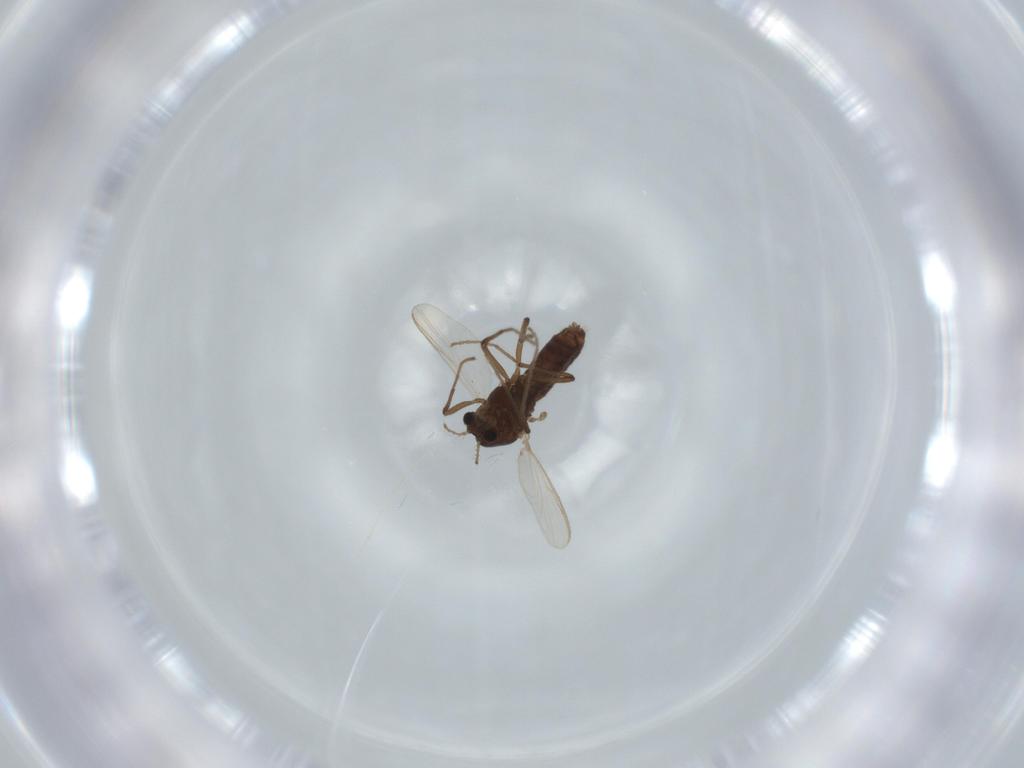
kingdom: Animalia
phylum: Arthropoda
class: Insecta
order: Diptera
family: Chironomidae
